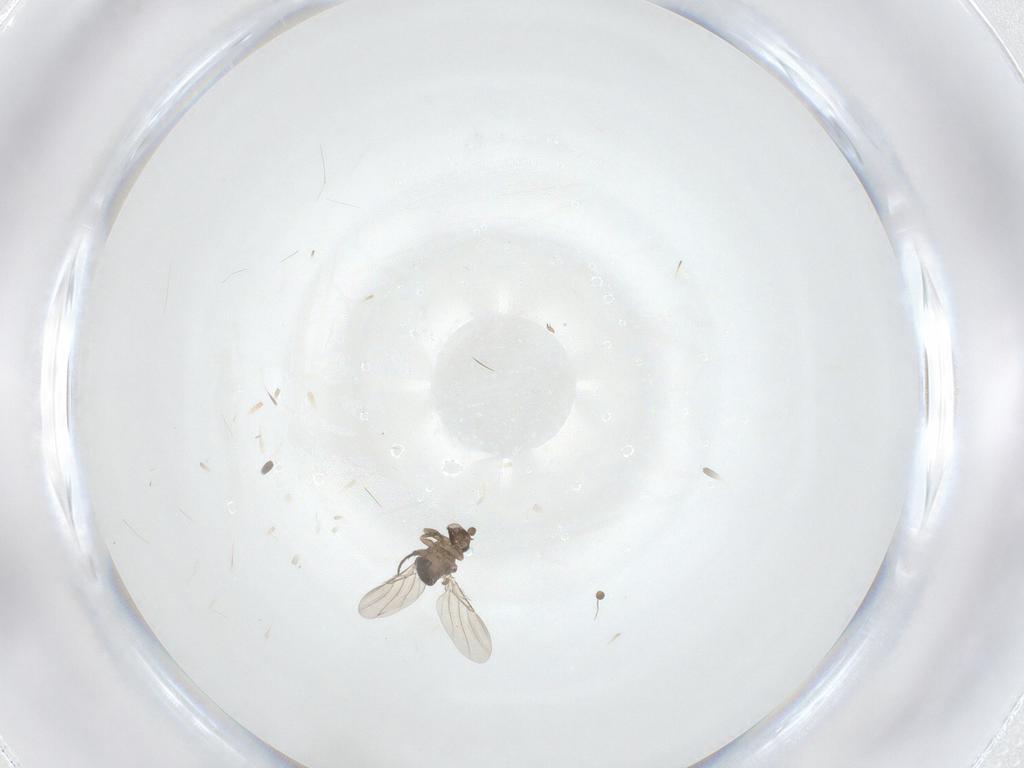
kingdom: Animalia
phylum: Arthropoda
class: Insecta
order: Diptera
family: Phoridae
